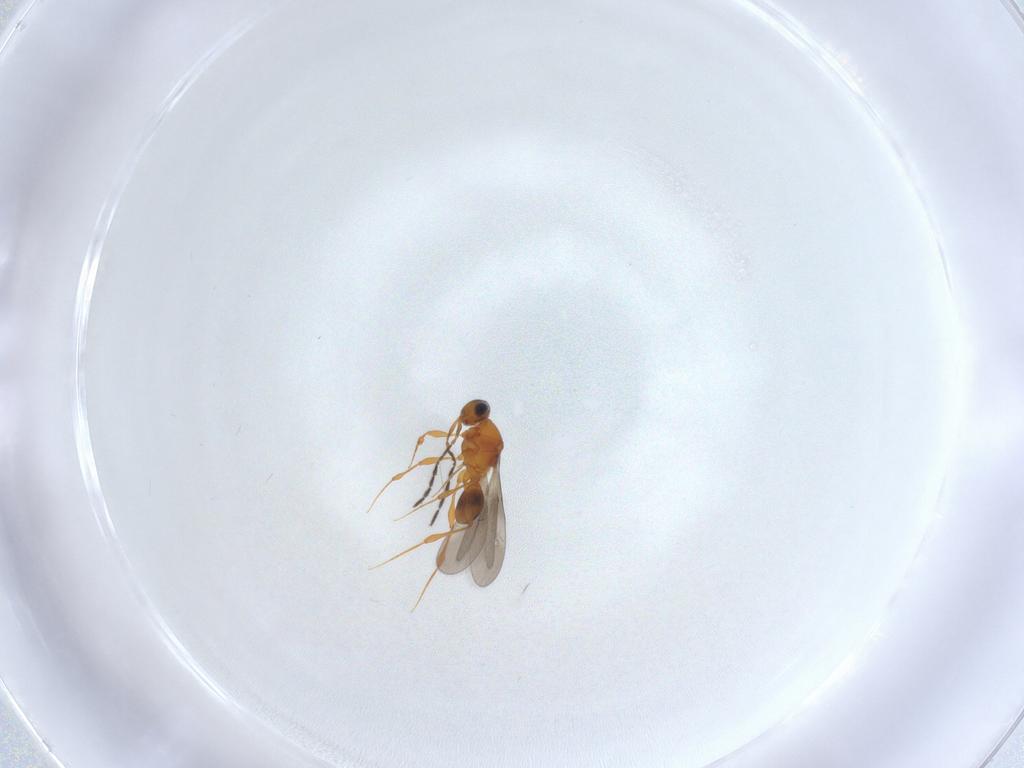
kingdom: Animalia
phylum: Arthropoda
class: Insecta
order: Hymenoptera
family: Platygastridae
